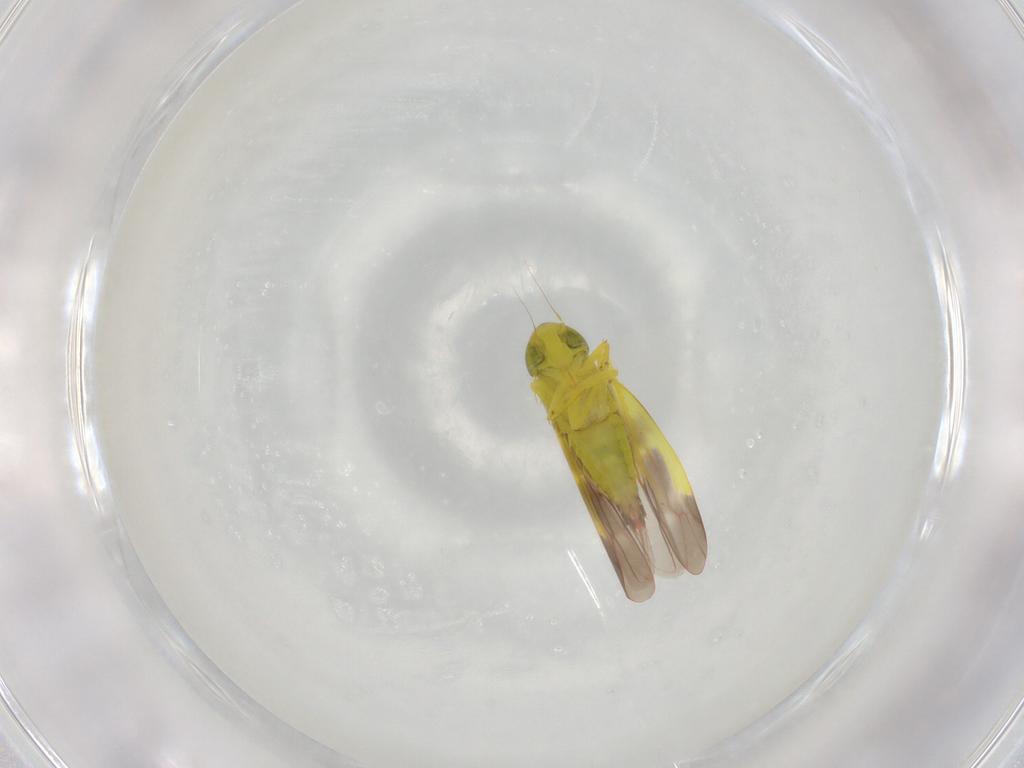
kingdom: Animalia
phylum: Arthropoda
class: Insecta
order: Hemiptera
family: Cicadellidae
